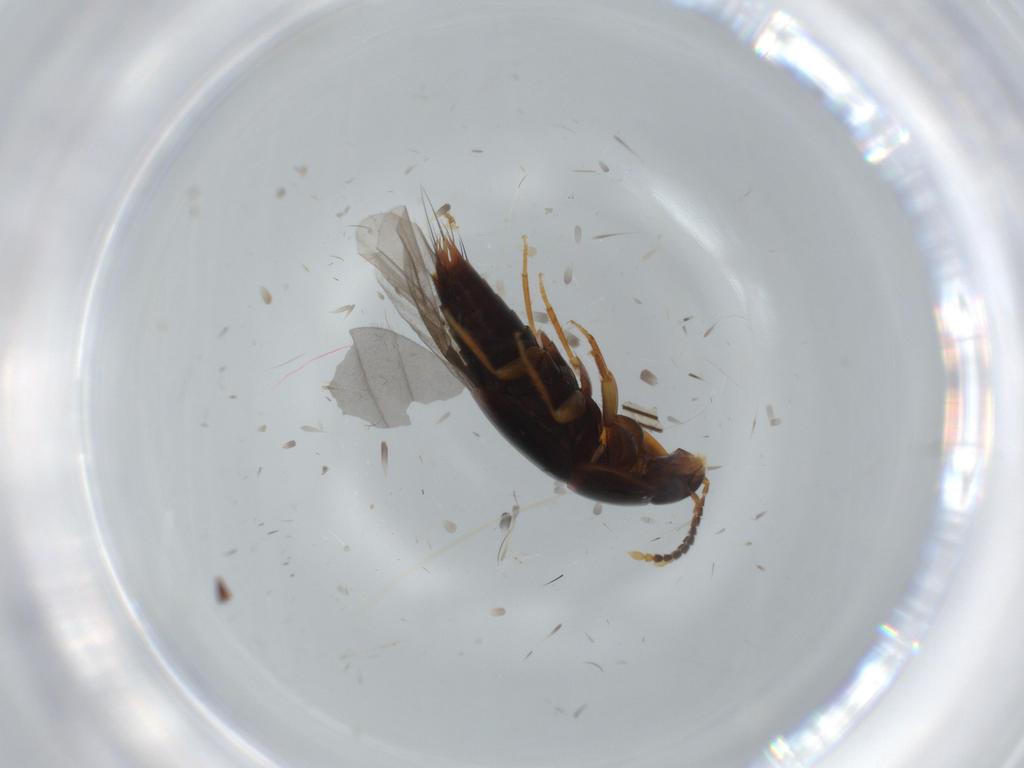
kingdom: Animalia
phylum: Arthropoda
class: Insecta
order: Coleoptera
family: Staphylinidae
